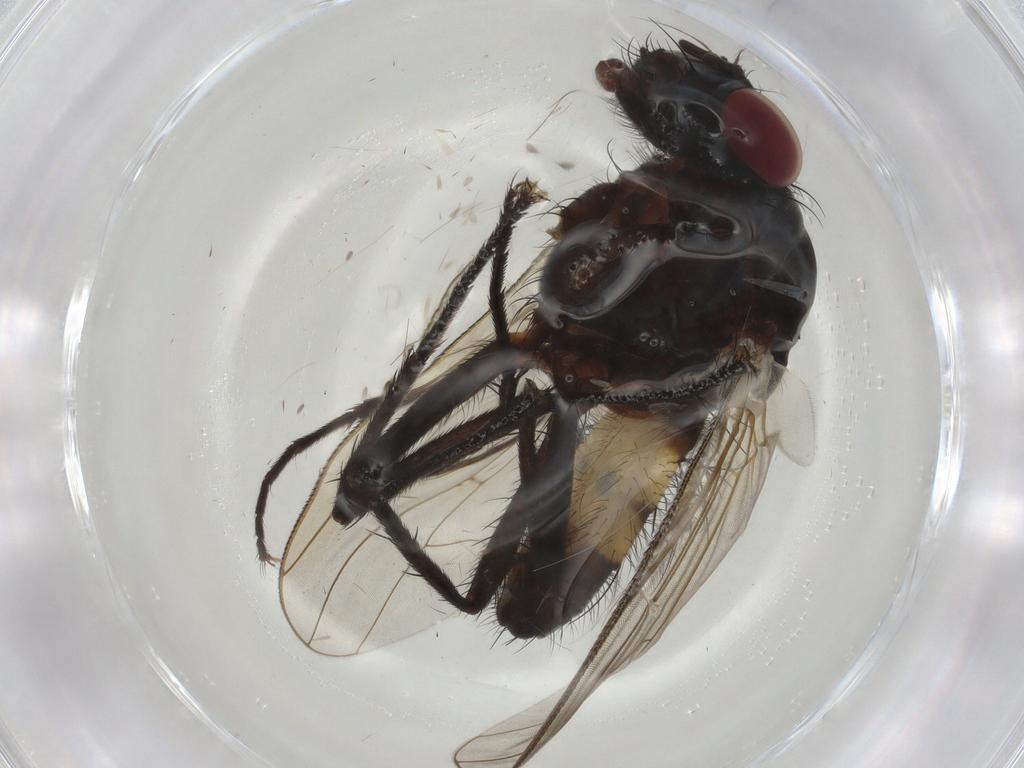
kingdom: Animalia
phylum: Arthropoda
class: Insecta
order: Diptera
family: Anthomyiidae
